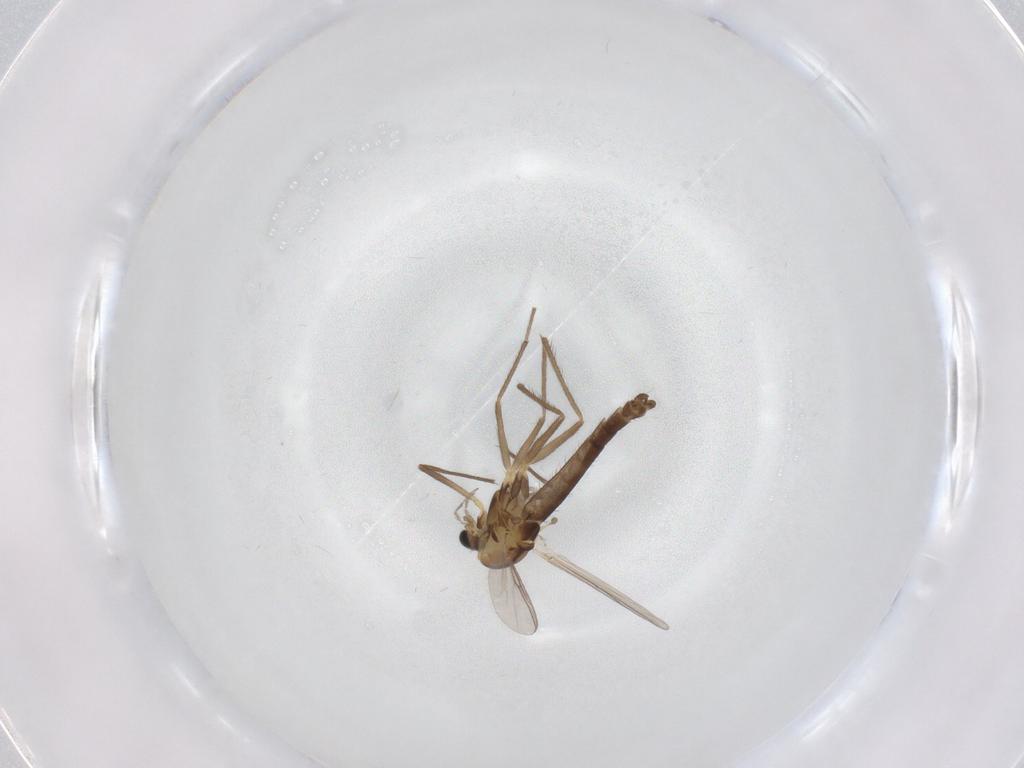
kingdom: Animalia
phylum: Arthropoda
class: Insecta
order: Diptera
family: Chironomidae
